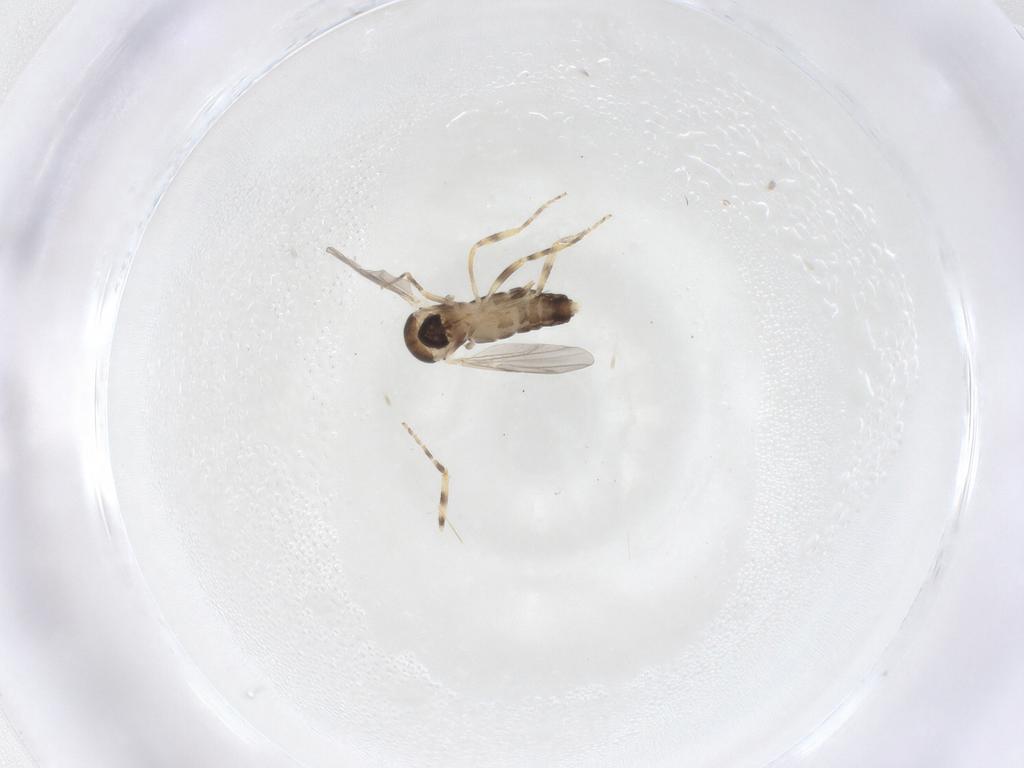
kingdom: Animalia
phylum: Arthropoda
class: Insecta
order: Diptera
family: Ceratopogonidae
